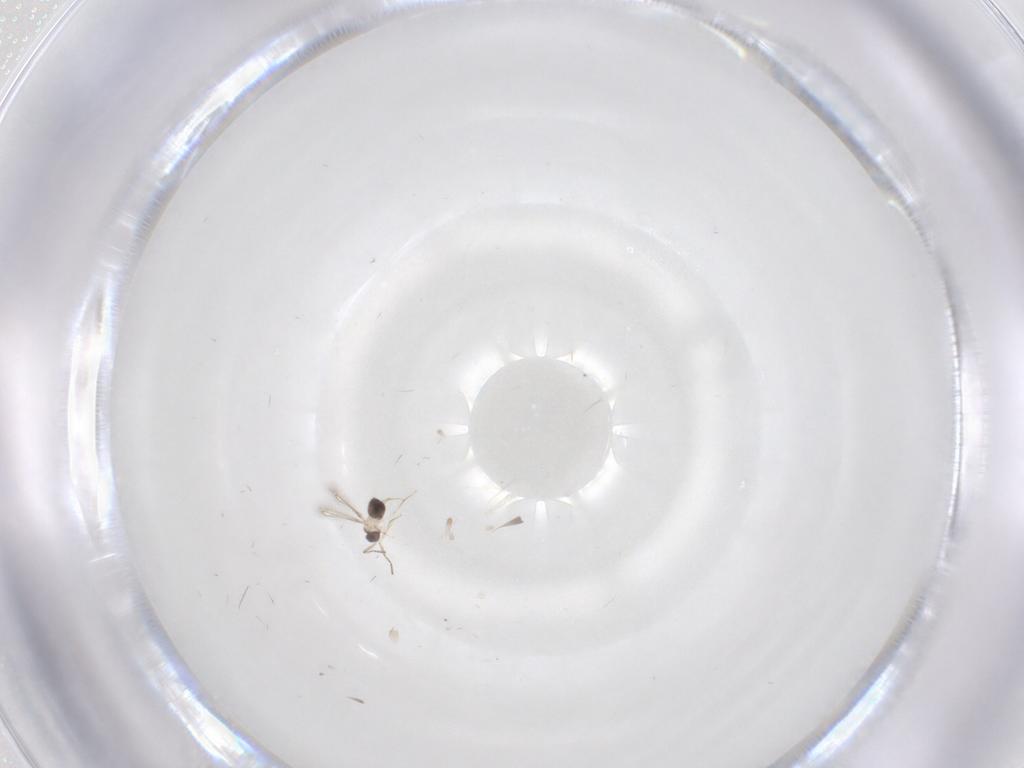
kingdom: Animalia
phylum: Arthropoda
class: Insecta
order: Hymenoptera
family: Mymaridae
